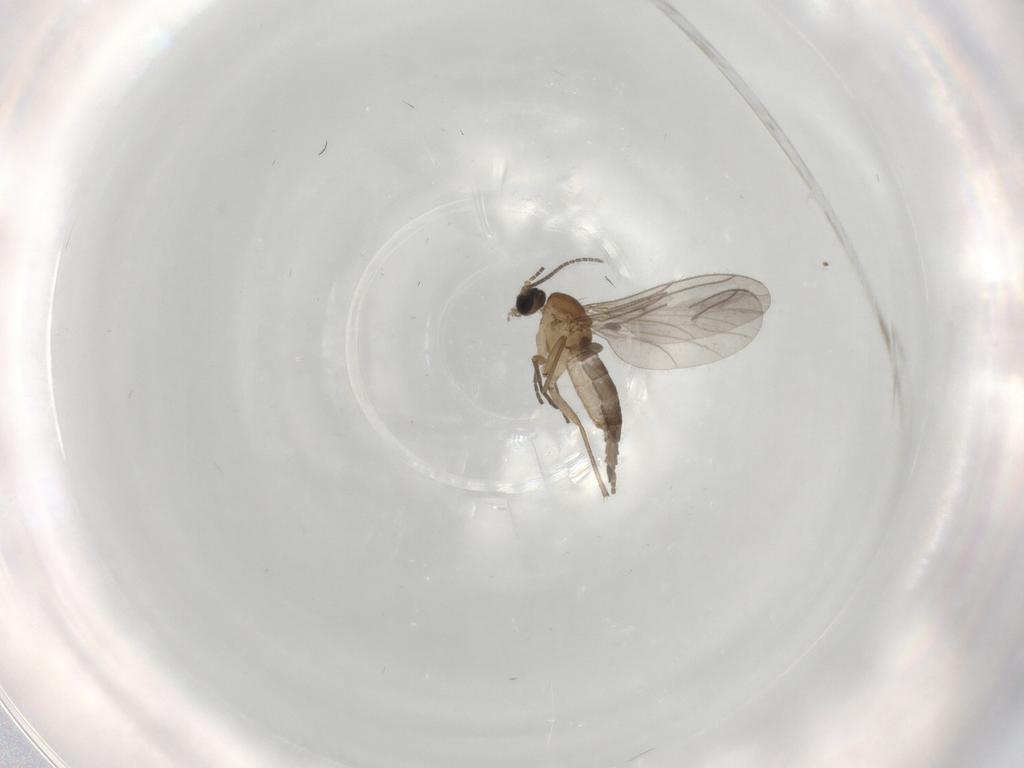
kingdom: Animalia
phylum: Arthropoda
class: Insecta
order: Diptera
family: Sciaridae
